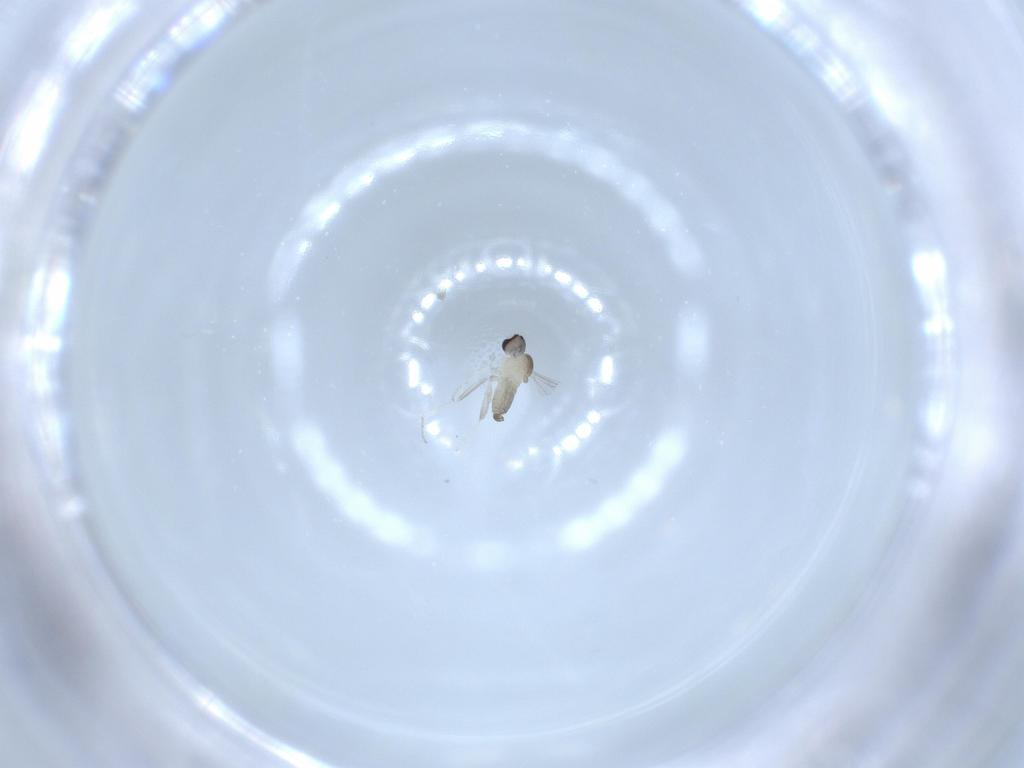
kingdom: Animalia
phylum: Arthropoda
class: Insecta
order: Diptera
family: Cecidomyiidae
